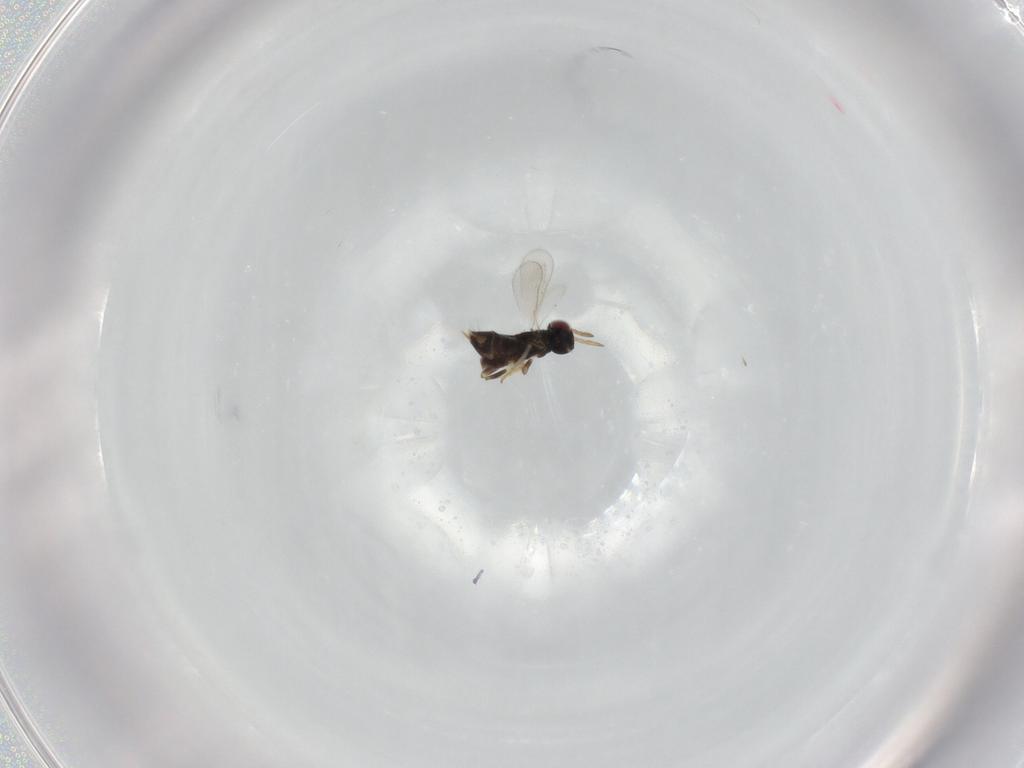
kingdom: Animalia
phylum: Arthropoda
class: Insecta
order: Hymenoptera
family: Aphelinidae
